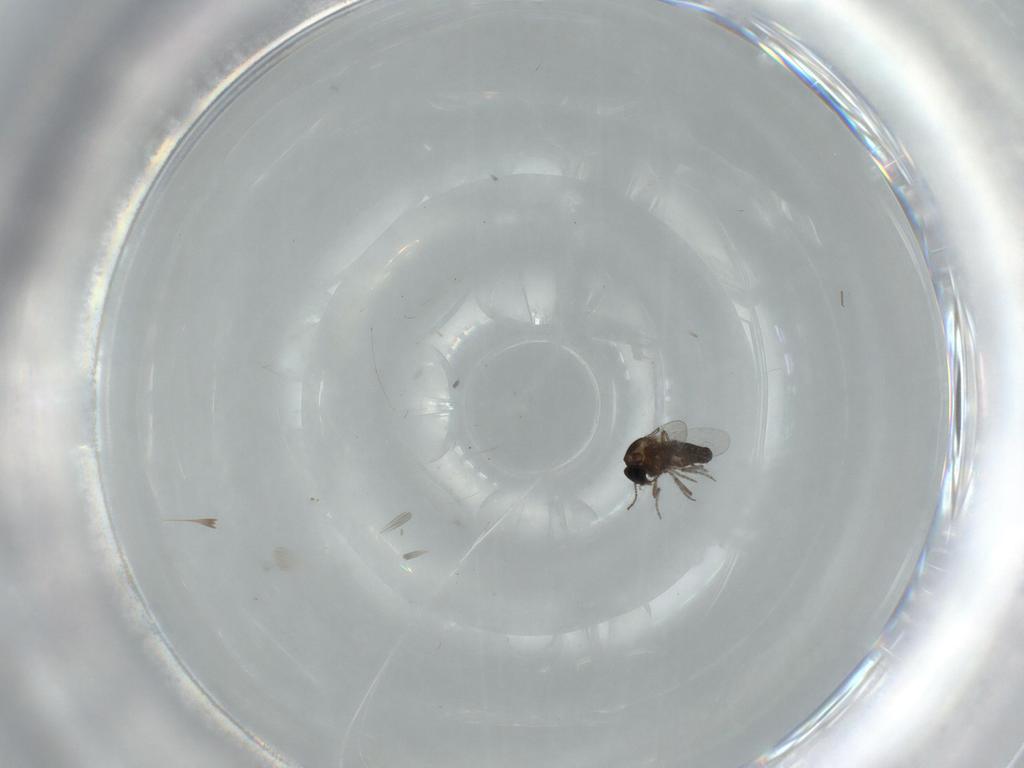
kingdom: Animalia
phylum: Arthropoda
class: Insecta
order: Diptera
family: Ceratopogonidae
